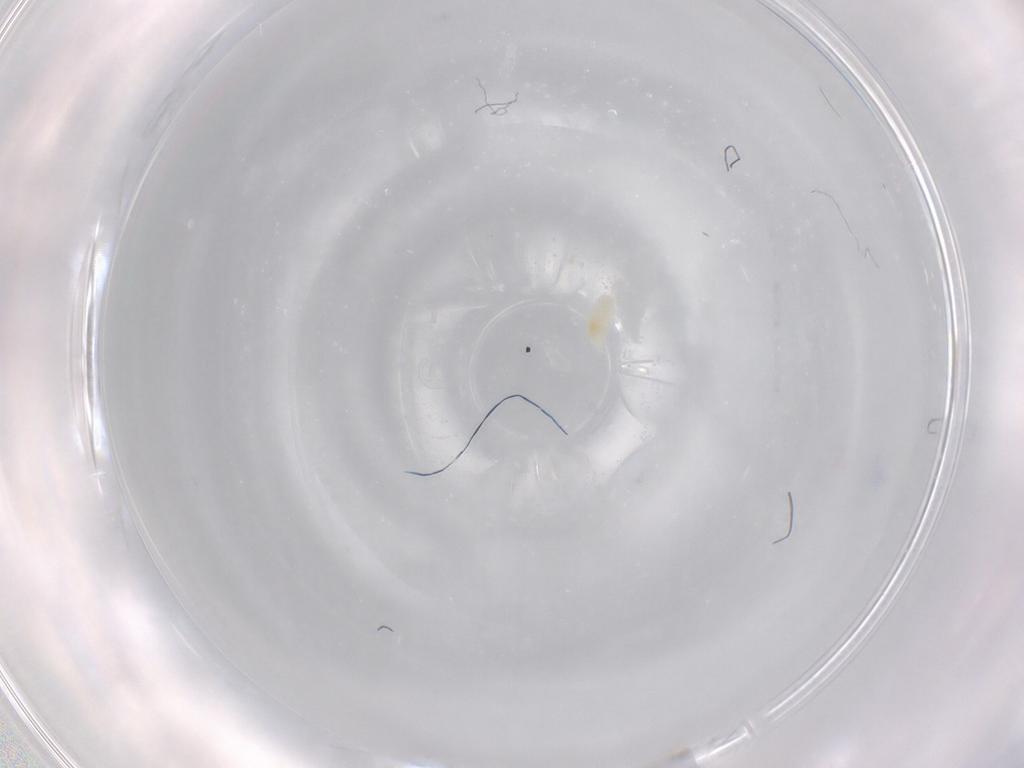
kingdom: Animalia
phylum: Arthropoda
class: Arachnida
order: Trombidiformes
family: Eupodidae
